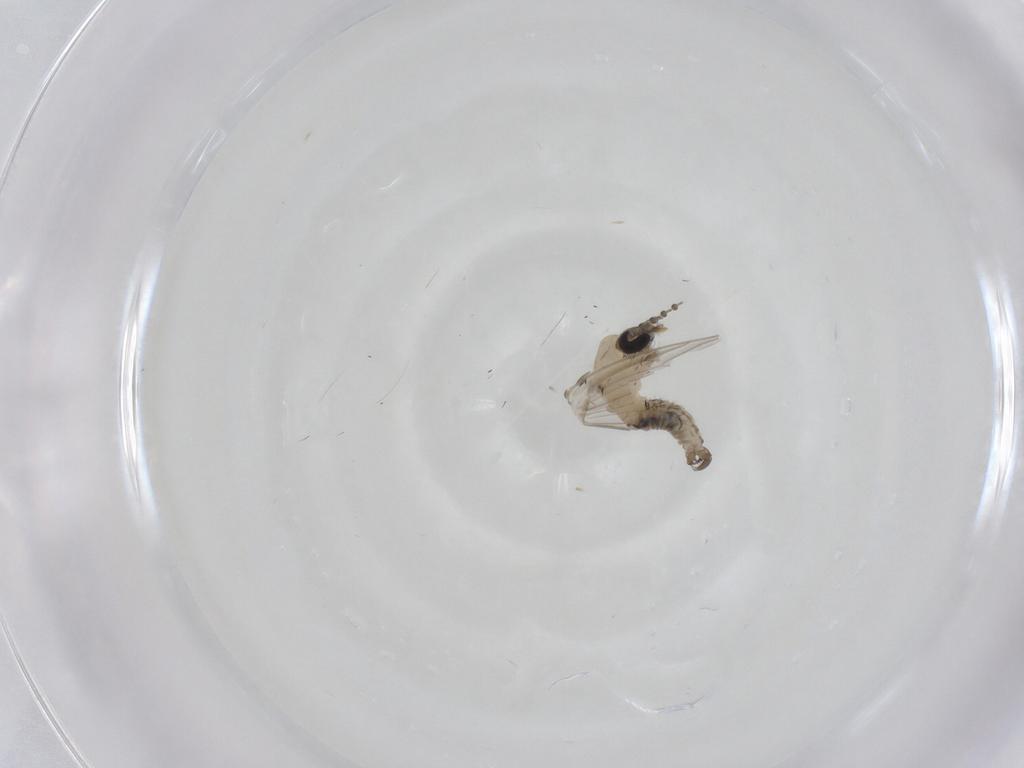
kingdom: Animalia
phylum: Arthropoda
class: Insecta
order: Diptera
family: Psychodidae
